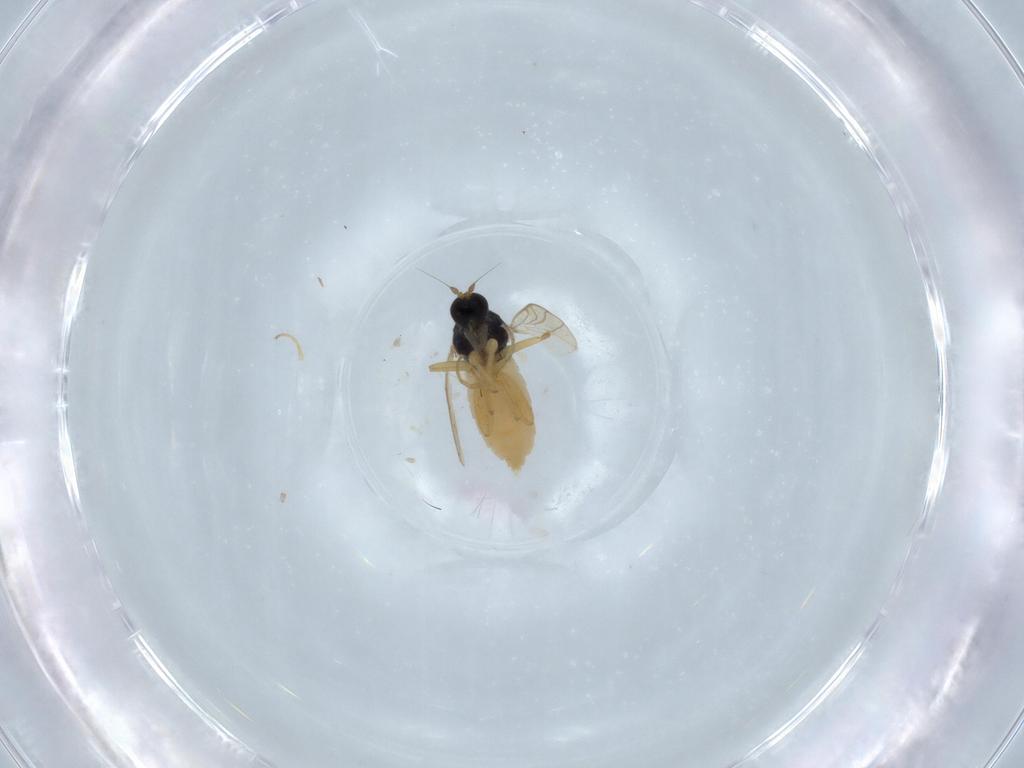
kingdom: Animalia
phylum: Arthropoda
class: Insecta
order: Diptera
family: Hybotidae
